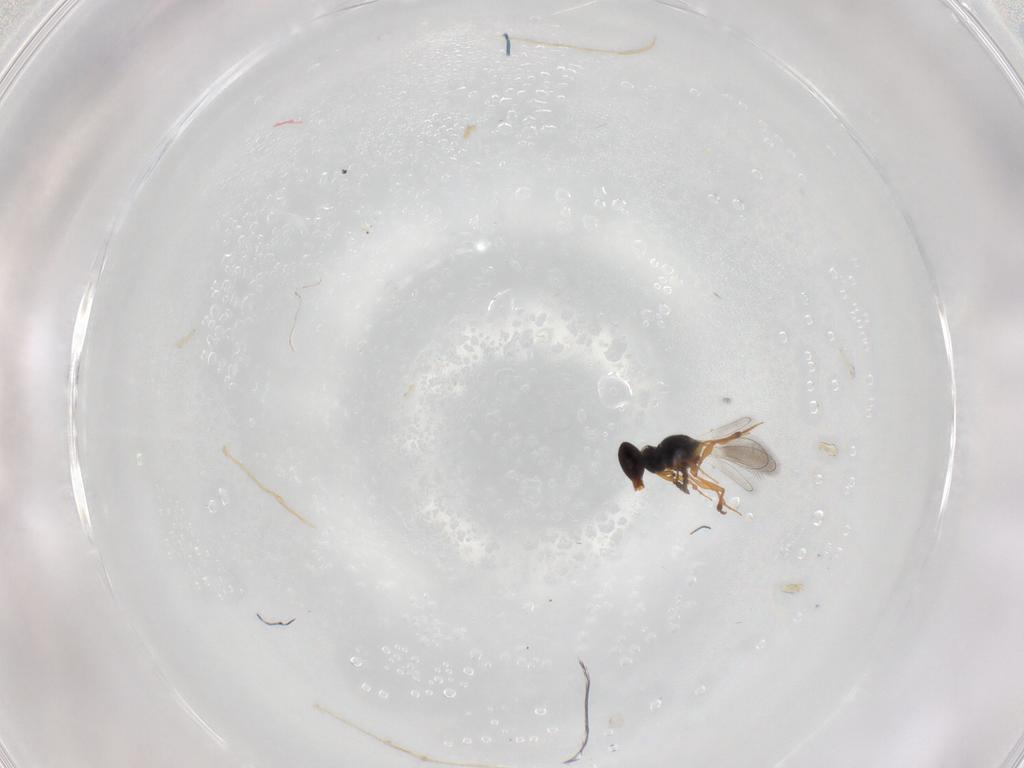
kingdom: Animalia
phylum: Arthropoda
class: Insecta
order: Hymenoptera
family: Platygastridae
